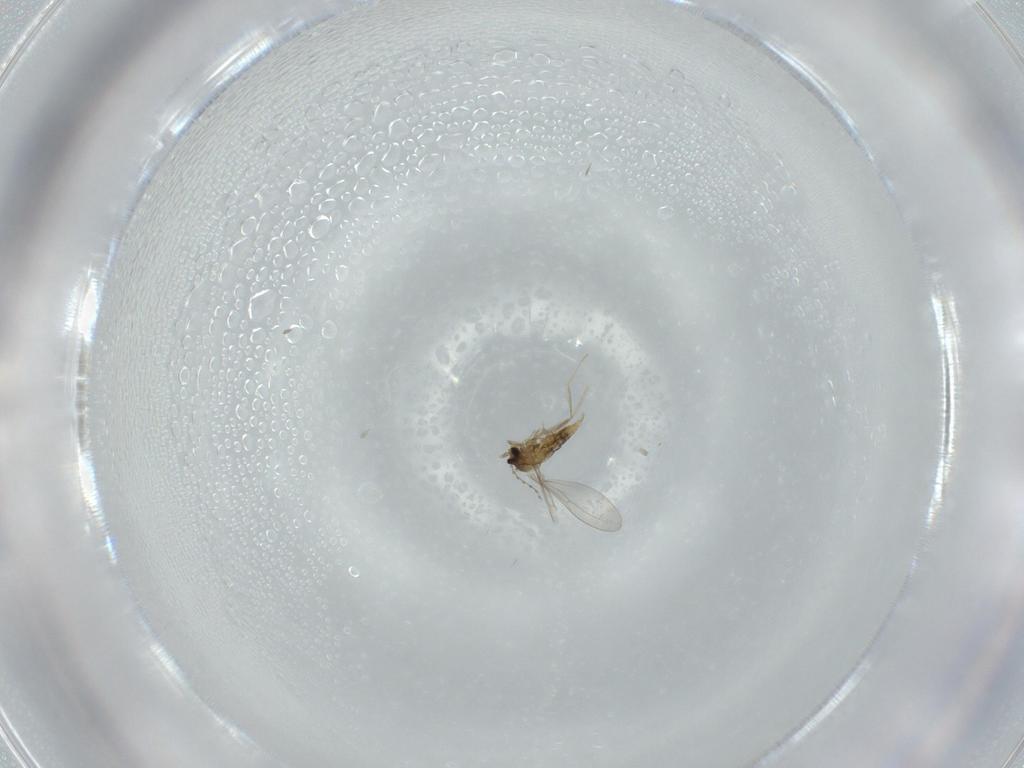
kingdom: Animalia
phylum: Arthropoda
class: Insecta
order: Diptera
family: Cecidomyiidae
